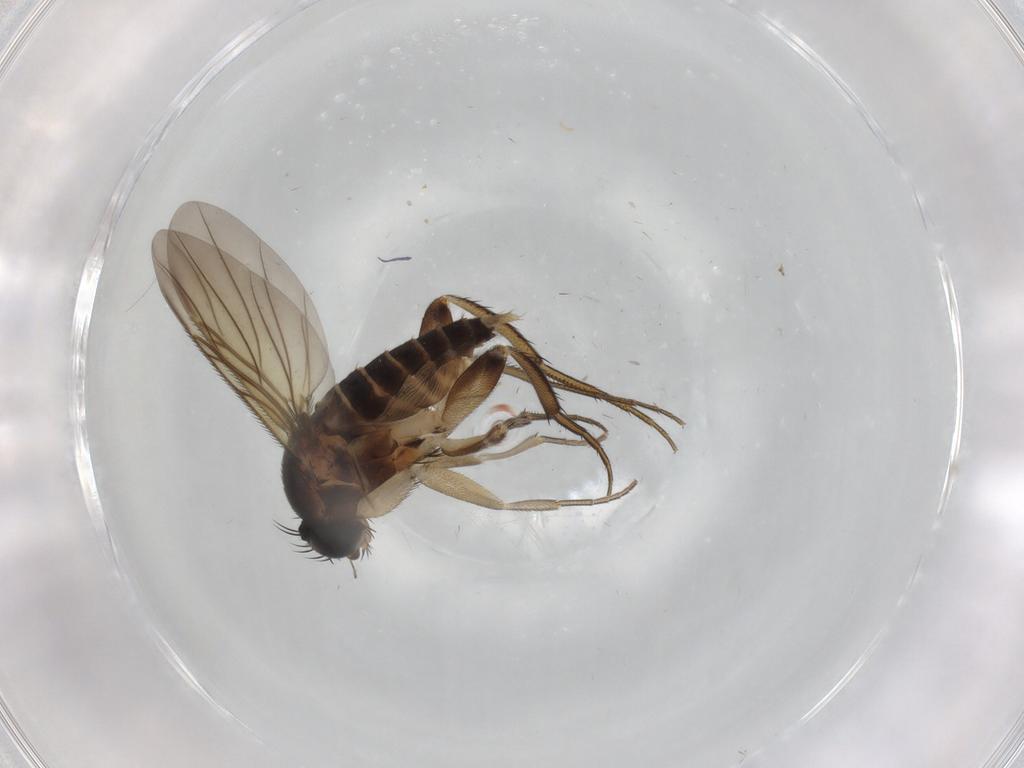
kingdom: Animalia
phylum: Arthropoda
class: Insecta
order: Diptera
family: Phoridae
